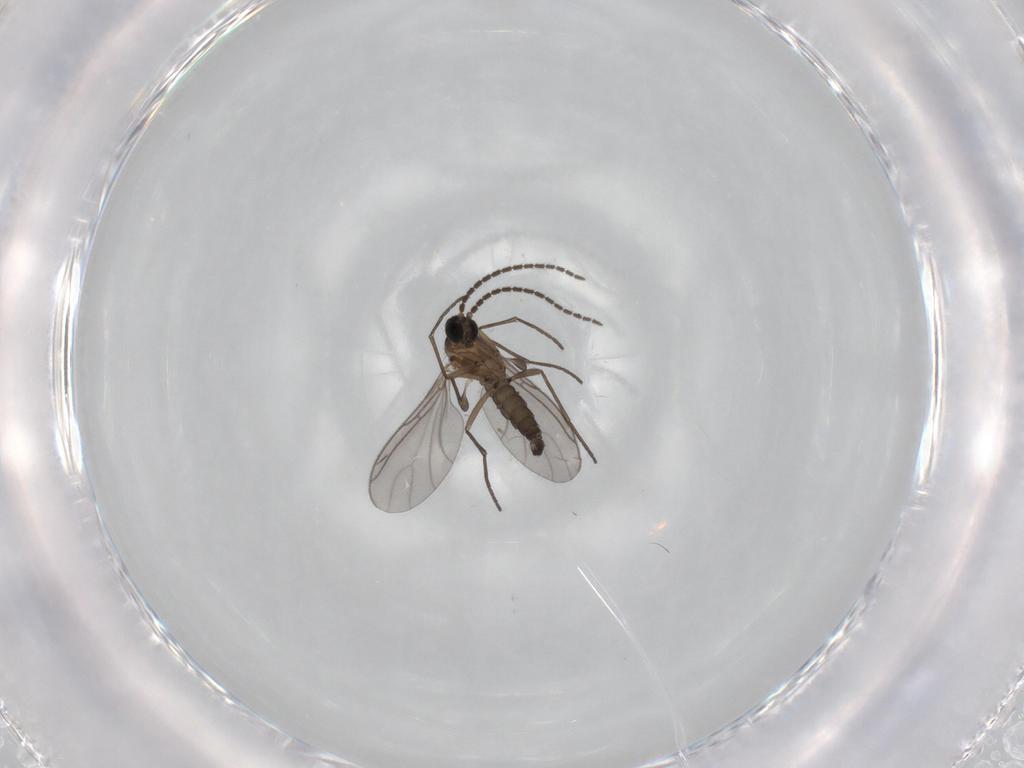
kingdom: Animalia
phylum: Arthropoda
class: Insecta
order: Diptera
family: Sciaridae
